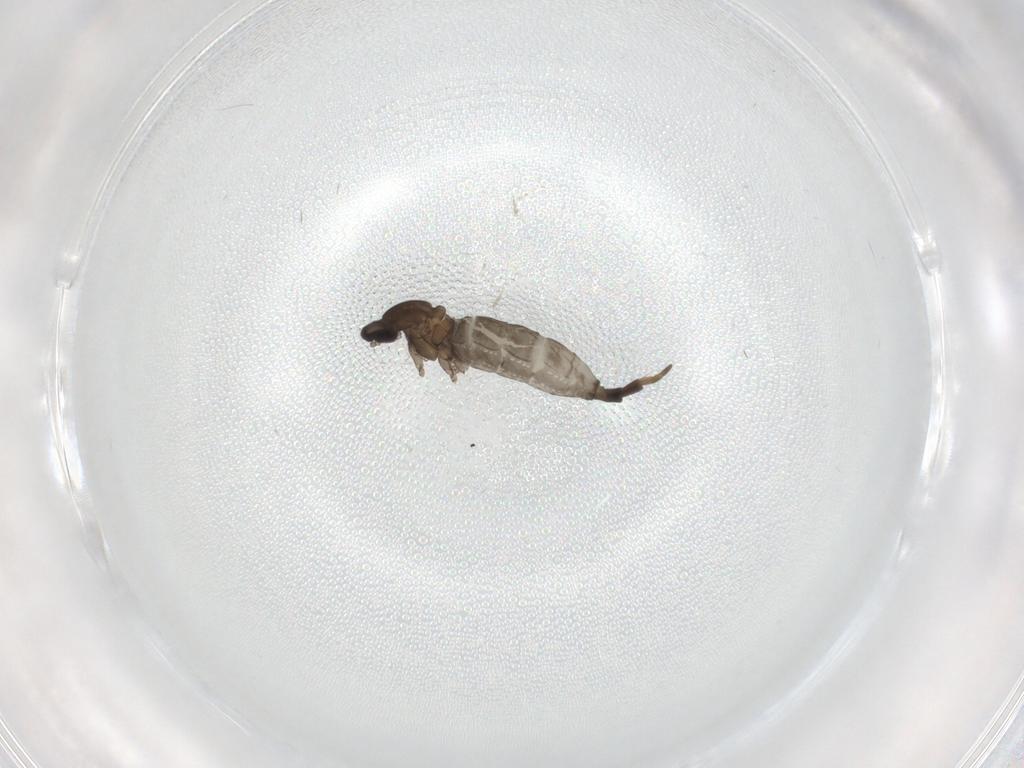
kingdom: Animalia
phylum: Arthropoda
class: Insecta
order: Diptera
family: Cecidomyiidae
